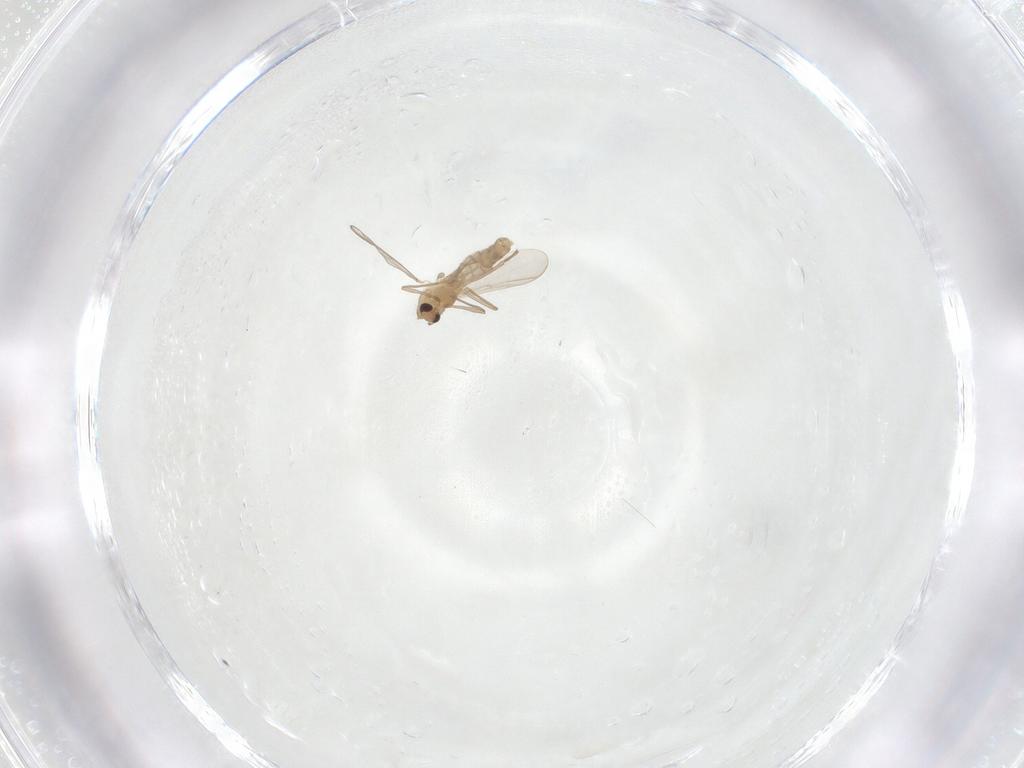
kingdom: Animalia
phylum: Arthropoda
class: Insecta
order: Diptera
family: Chironomidae
